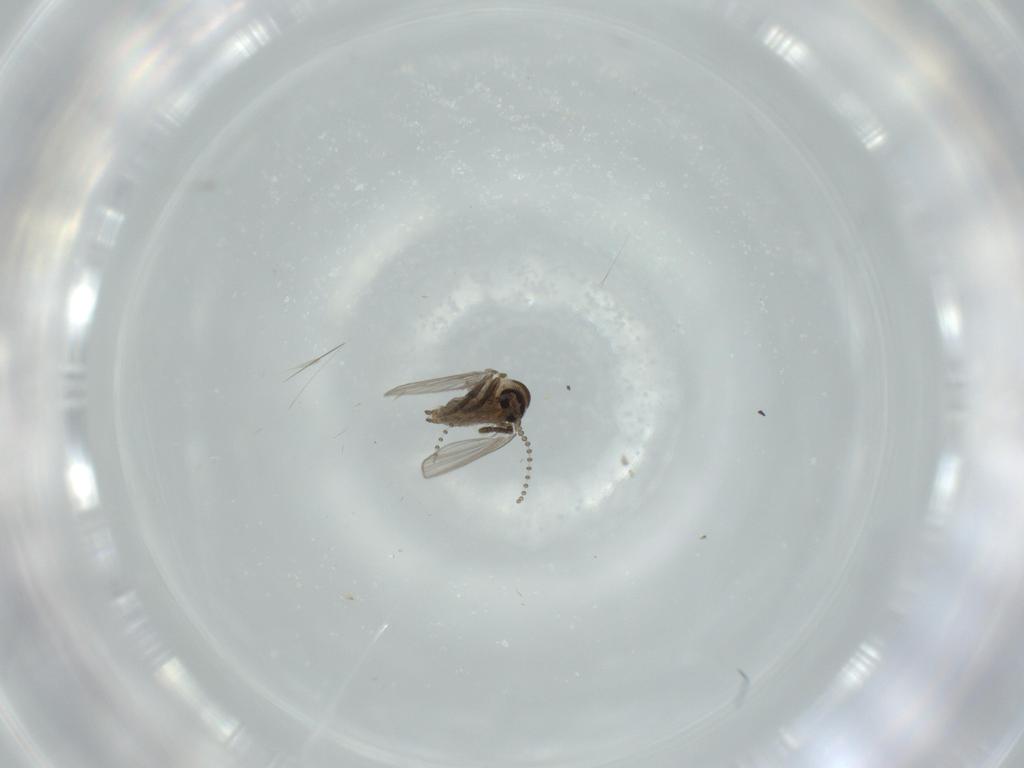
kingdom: Animalia
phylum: Arthropoda
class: Insecta
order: Diptera
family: Psychodidae
